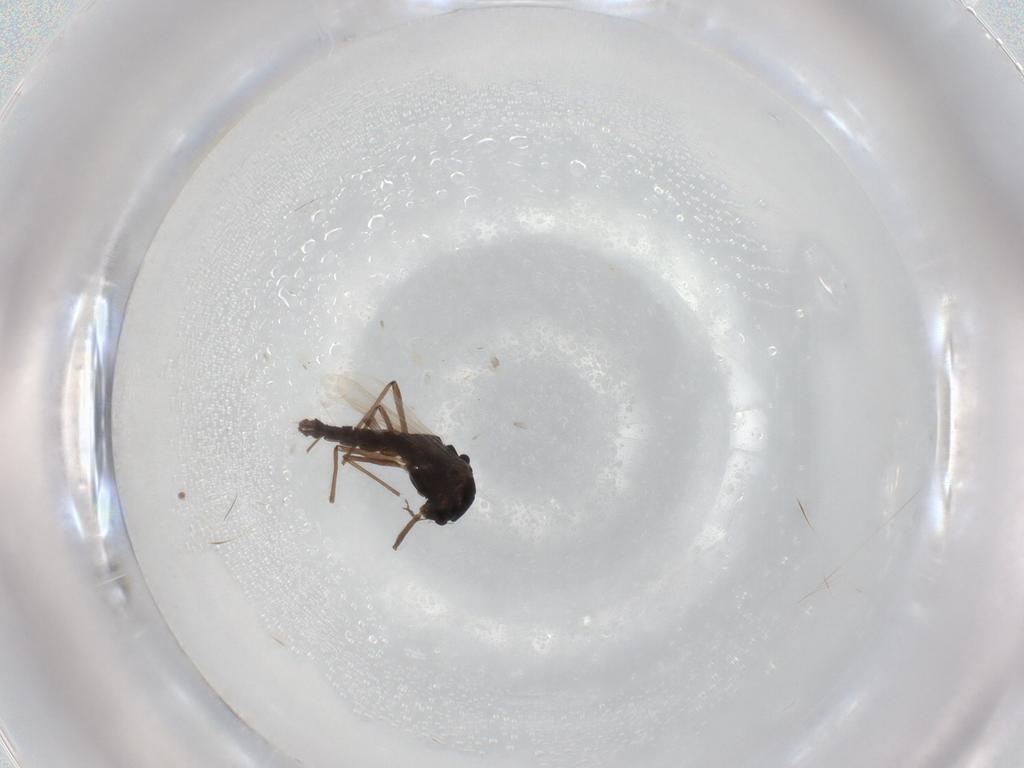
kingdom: Animalia
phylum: Arthropoda
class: Insecta
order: Diptera
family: Chironomidae
